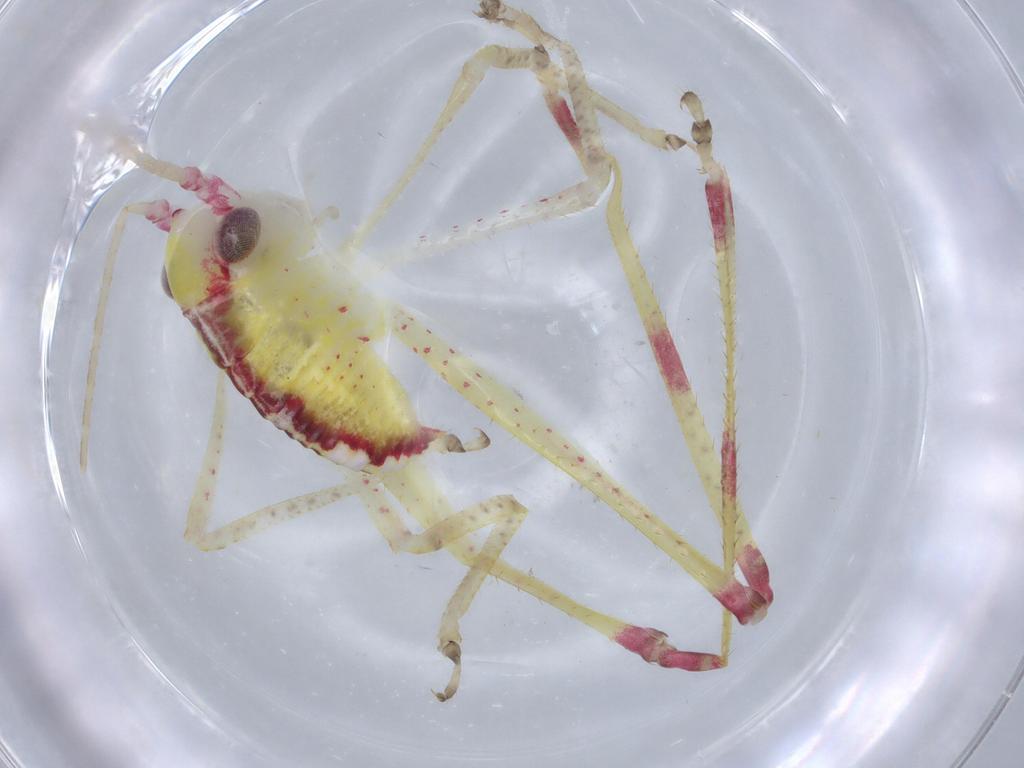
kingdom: Animalia
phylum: Arthropoda
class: Insecta
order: Orthoptera
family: Tettigoniidae
